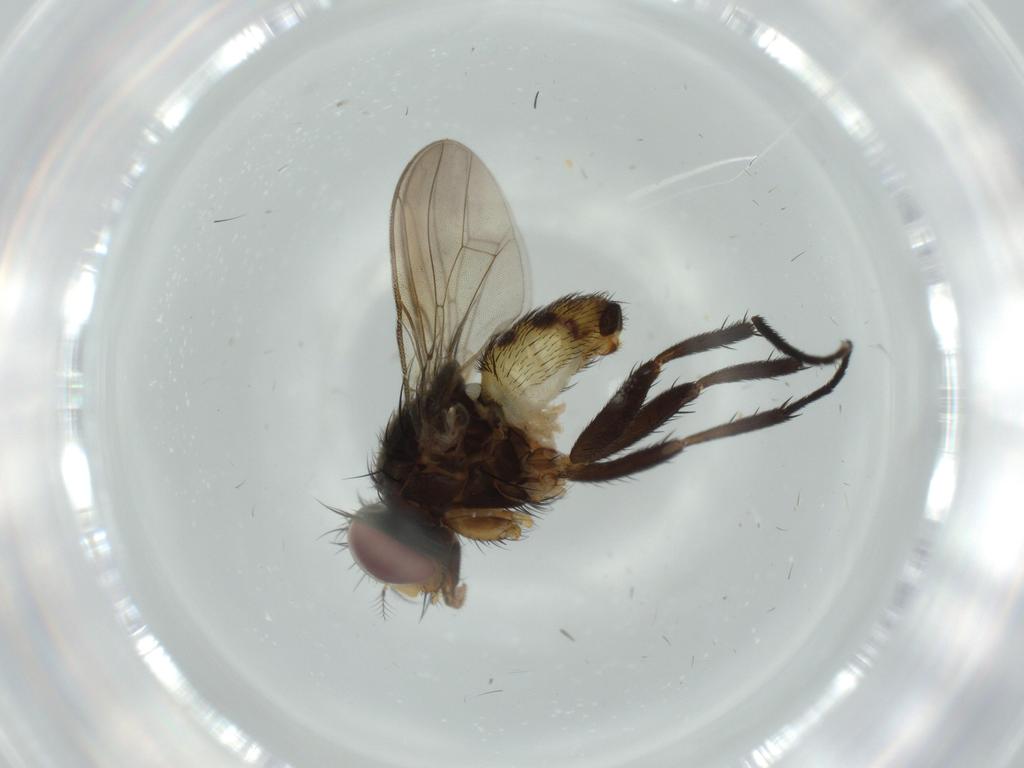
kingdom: Animalia
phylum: Arthropoda
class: Insecta
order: Diptera
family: Anthomyiidae
